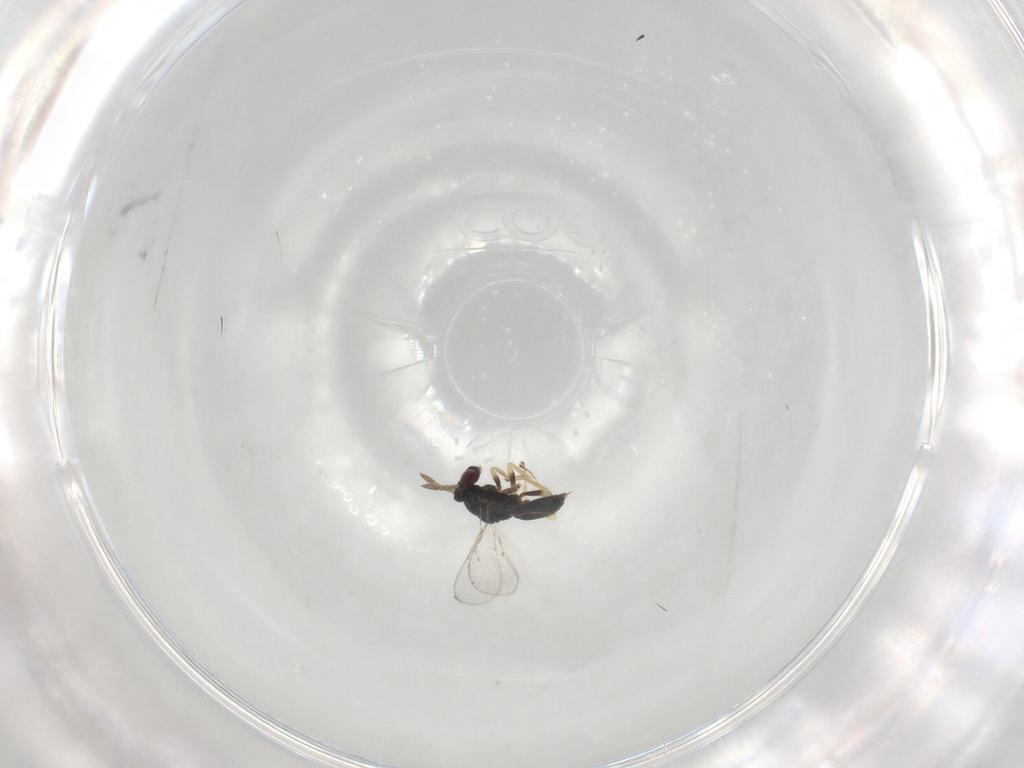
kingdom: Animalia
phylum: Arthropoda
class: Insecta
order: Hymenoptera
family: Eulophidae
